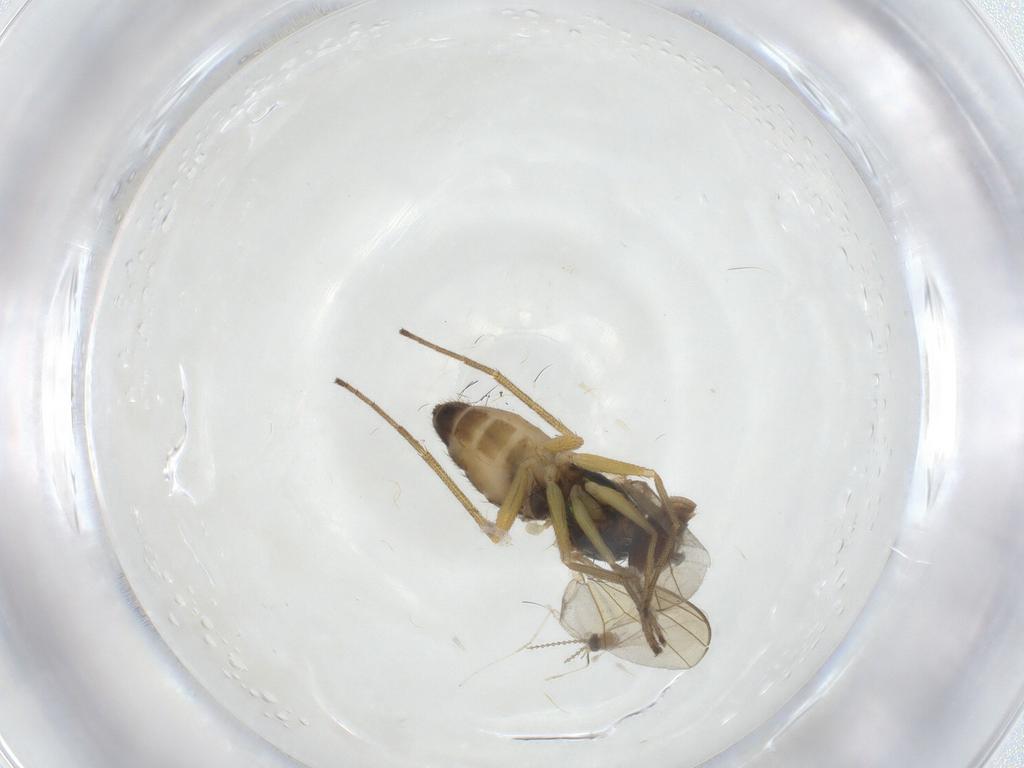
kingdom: Animalia
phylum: Arthropoda
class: Insecta
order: Diptera
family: Dolichopodidae
